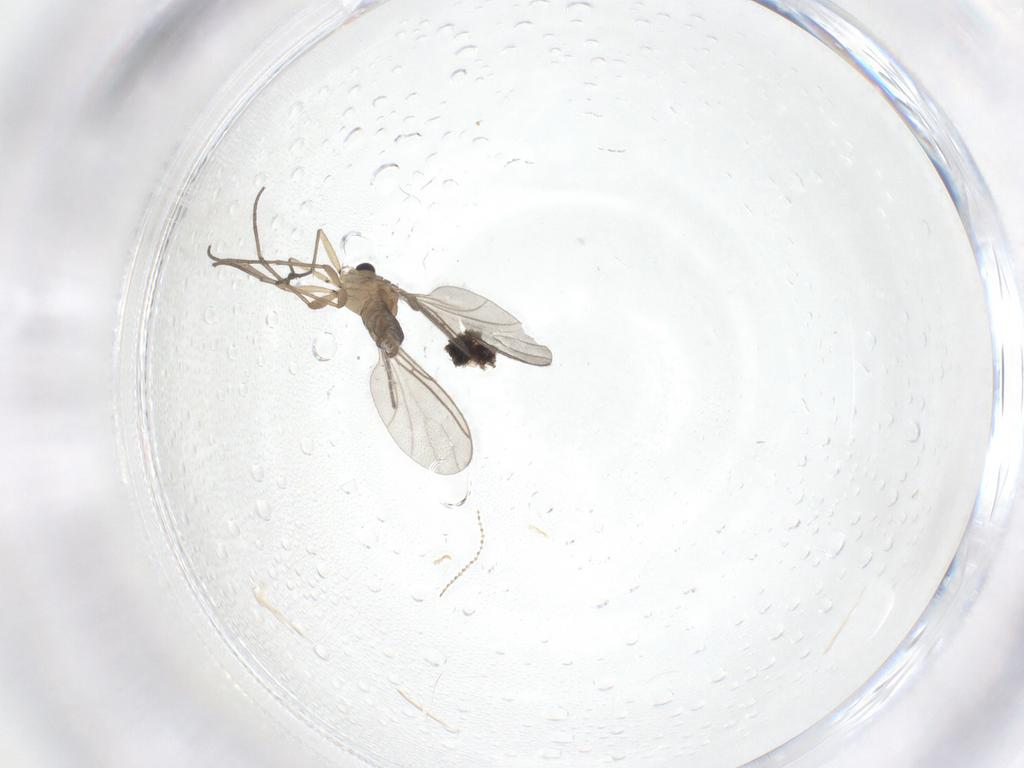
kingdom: Animalia
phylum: Arthropoda
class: Insecta
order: Diptera
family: Sciaridae
